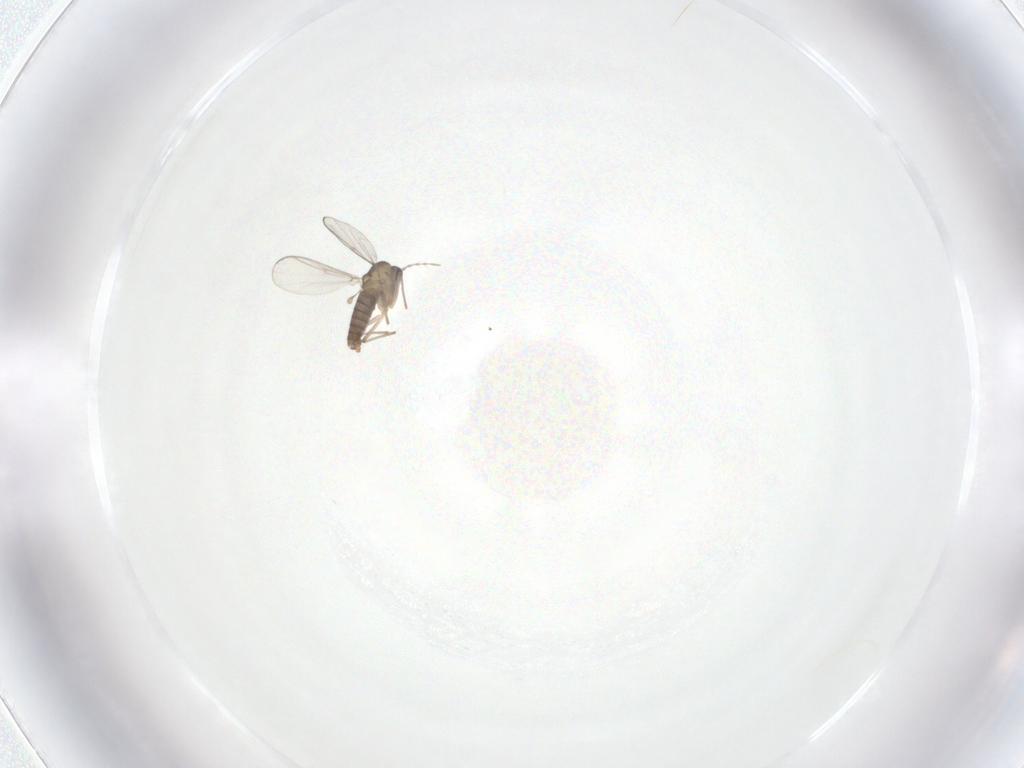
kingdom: Animalia
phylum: Arthropoda
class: Insecta
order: Diptera
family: Chironomidae
